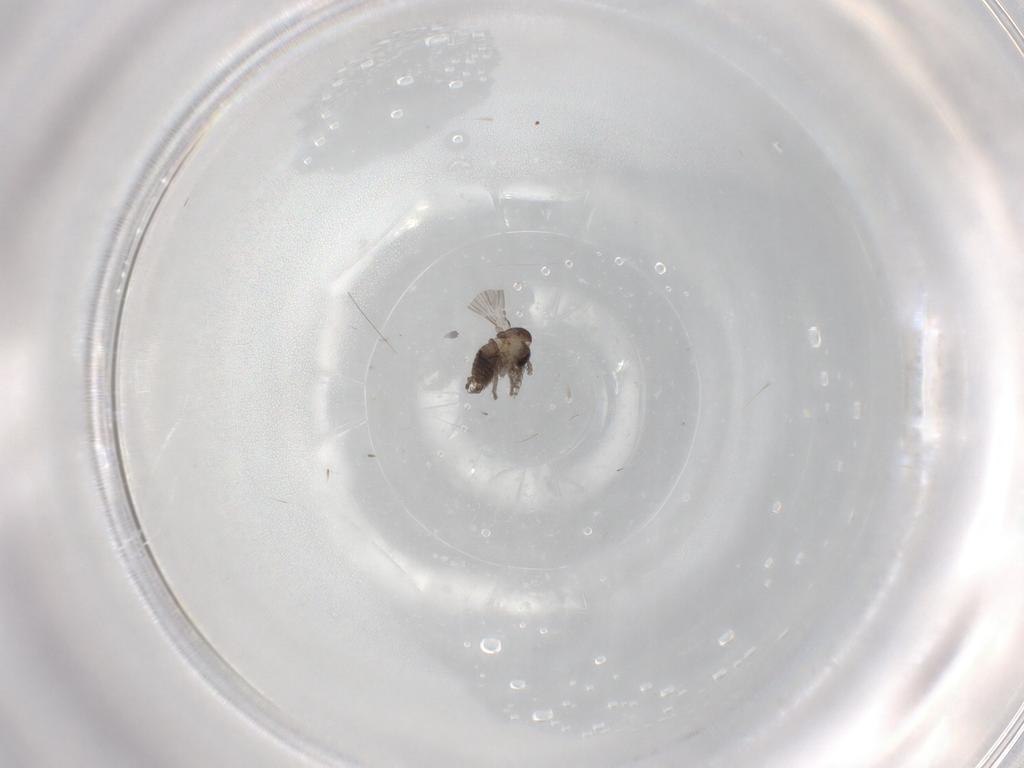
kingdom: Animalia
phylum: Arthropoda
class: Insecta
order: Diptera
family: Psychodidae
